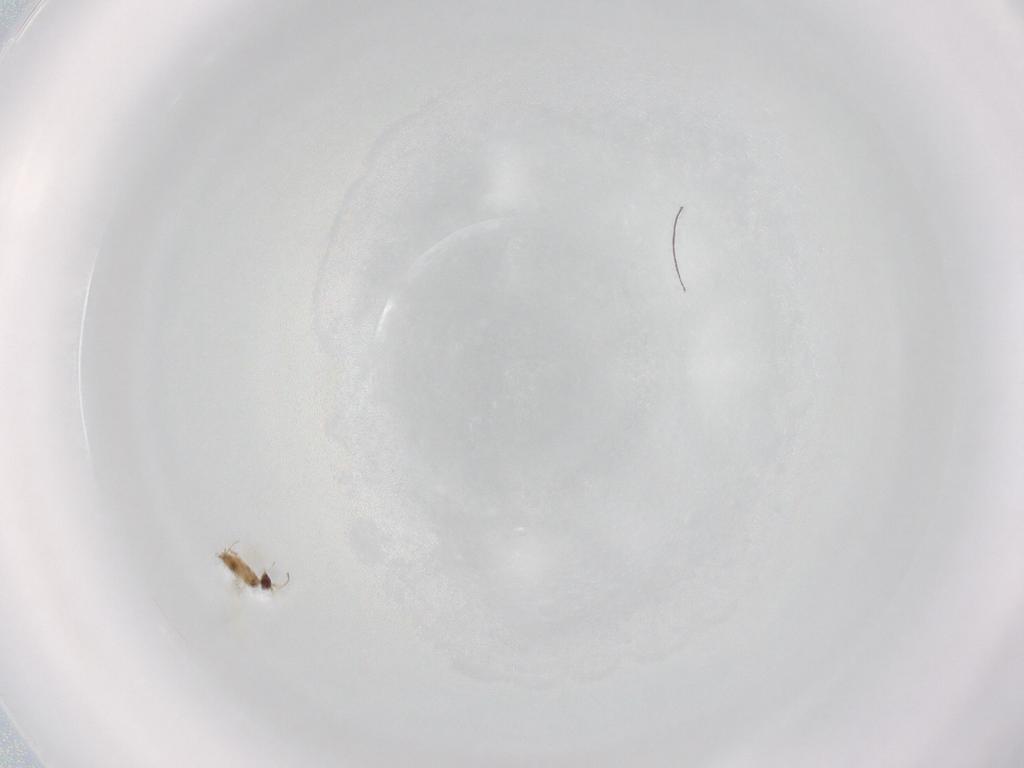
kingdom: Animalia
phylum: Arthropoda
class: Insecta
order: Hymenoptera
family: Mymaridae
